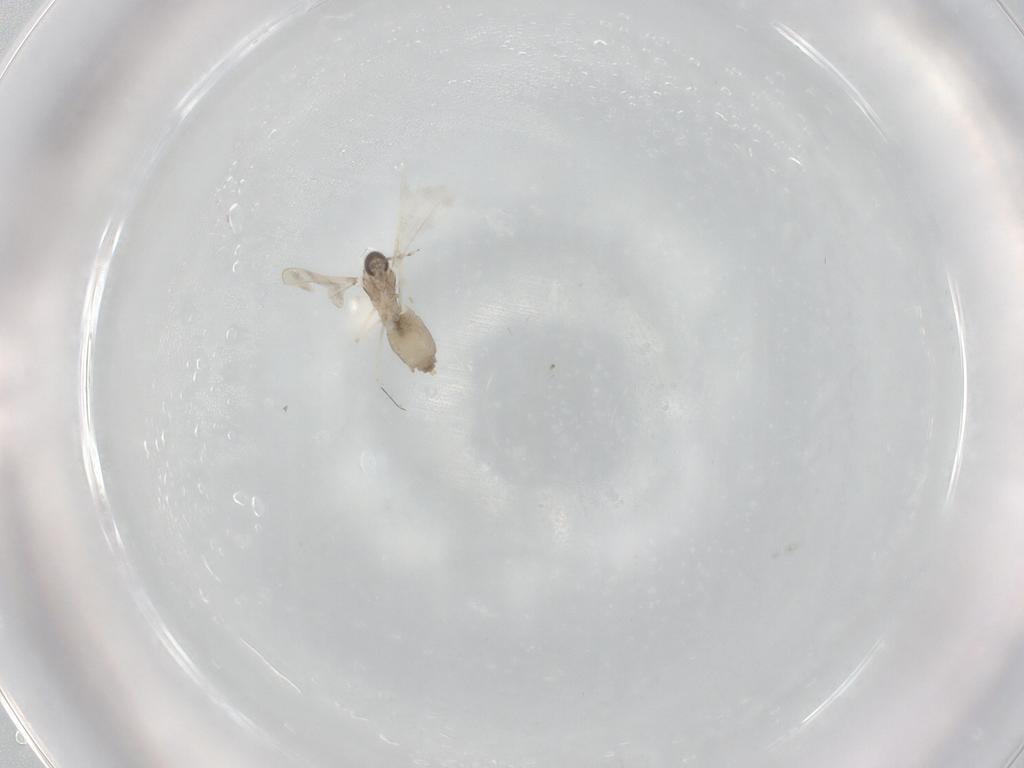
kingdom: Animalia
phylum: Arthropoda
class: Insecta
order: Diptera
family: Cecidomyiidae
